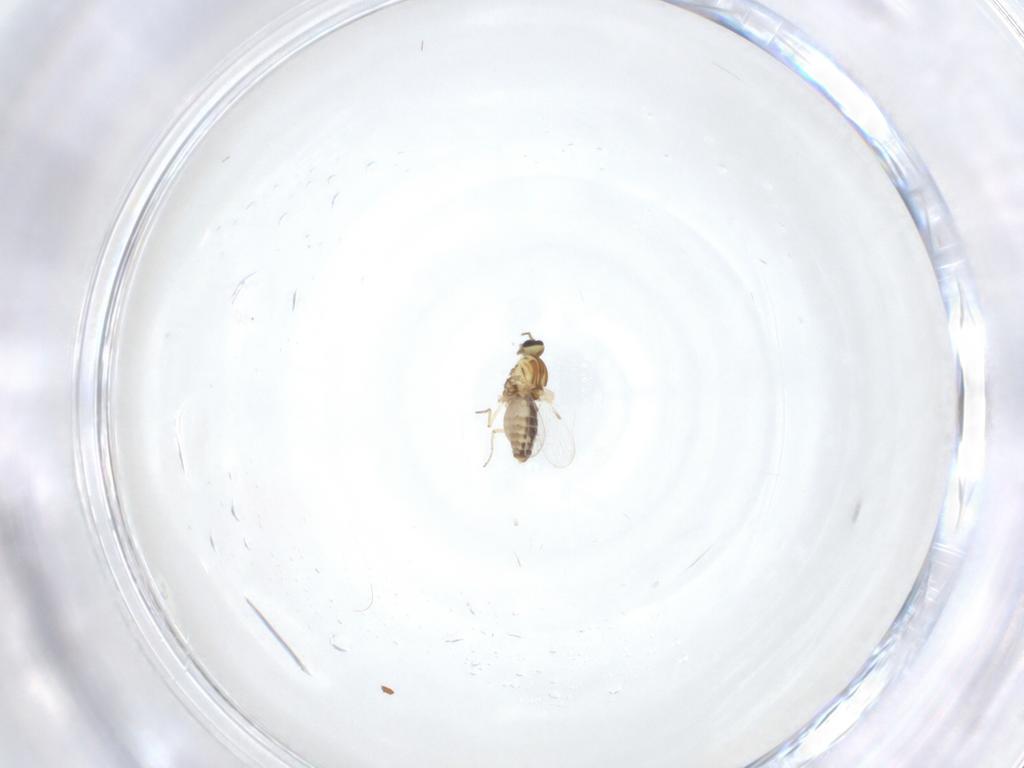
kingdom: Animalia
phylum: Arthropoda
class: Insecta
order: Diptera
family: Ceratopogonidae
